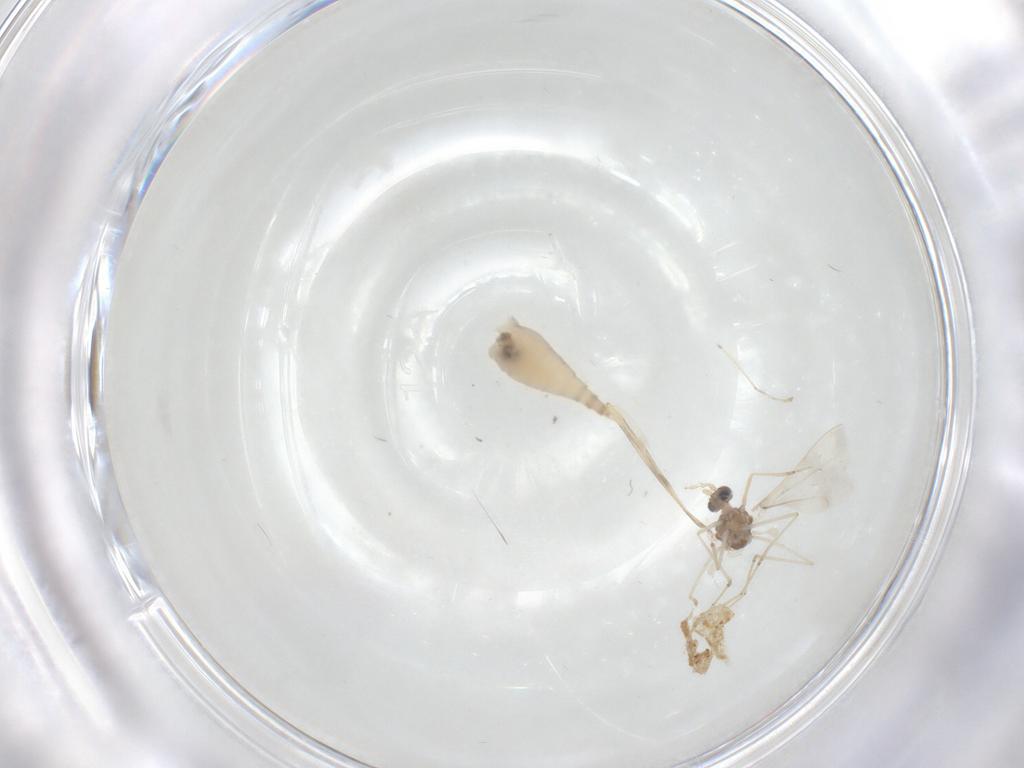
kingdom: Animalia
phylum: Arthropoda
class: Insecta
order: Diptera
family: Cecidomyiidae
